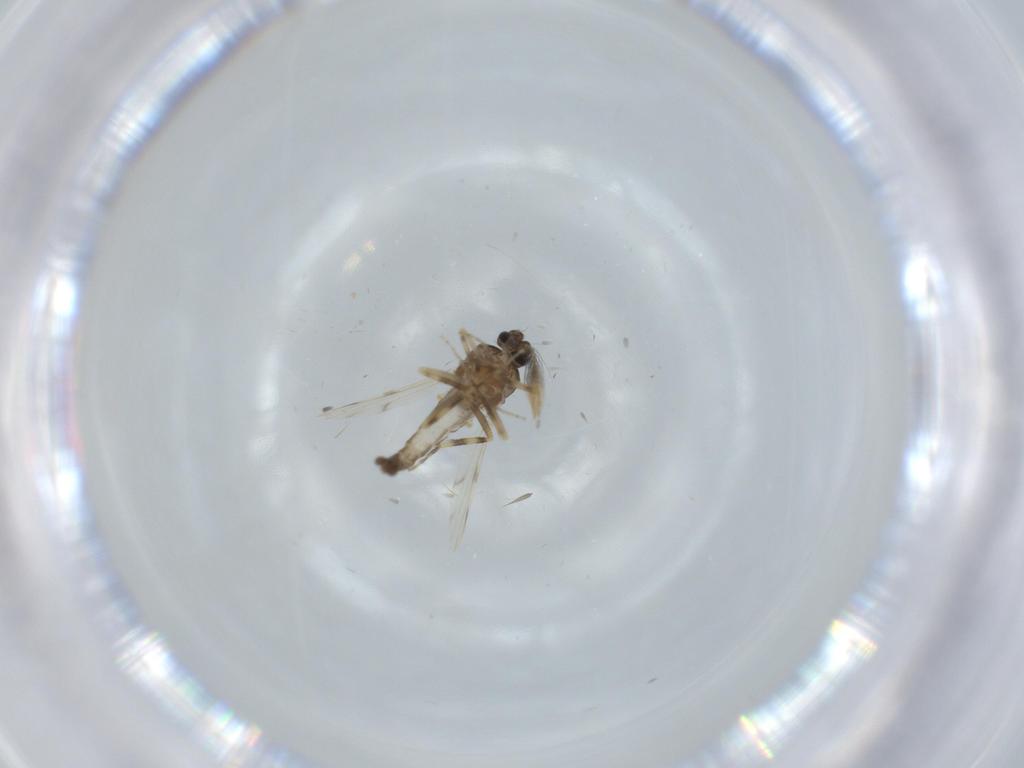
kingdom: Animalia
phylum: Arthropoda
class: Insecta
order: Diptera
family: Ceratopogonidae
